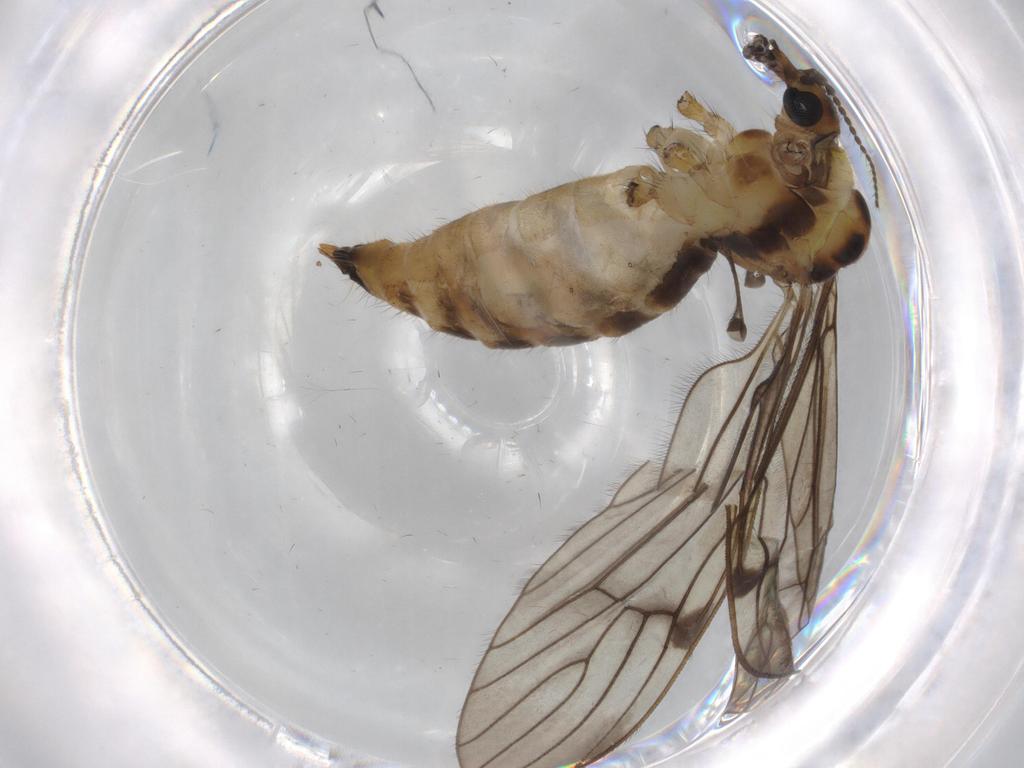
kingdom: Animalia
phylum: Arthropoda
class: Insecta
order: Diptera
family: Limoniidae
